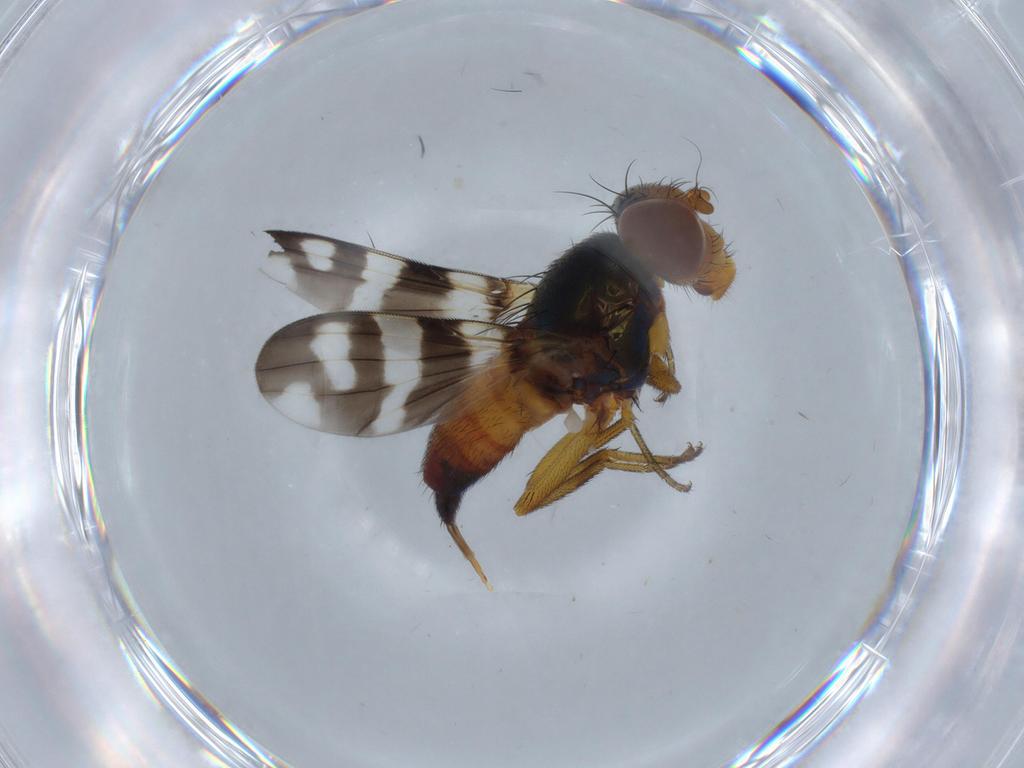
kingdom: Animalia
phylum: Arthropoda
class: Insecta
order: Diptera
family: Ulidiidae
